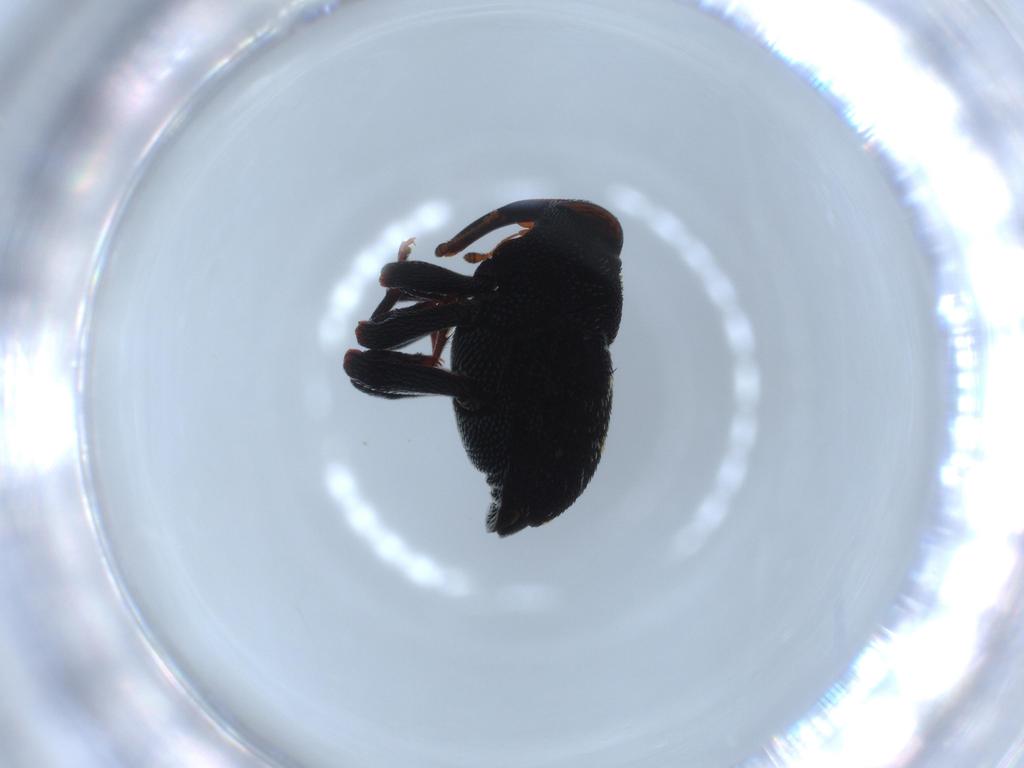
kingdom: Animalia
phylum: Arthropoda
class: Insecta
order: Coleoptera
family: Curculionidae
